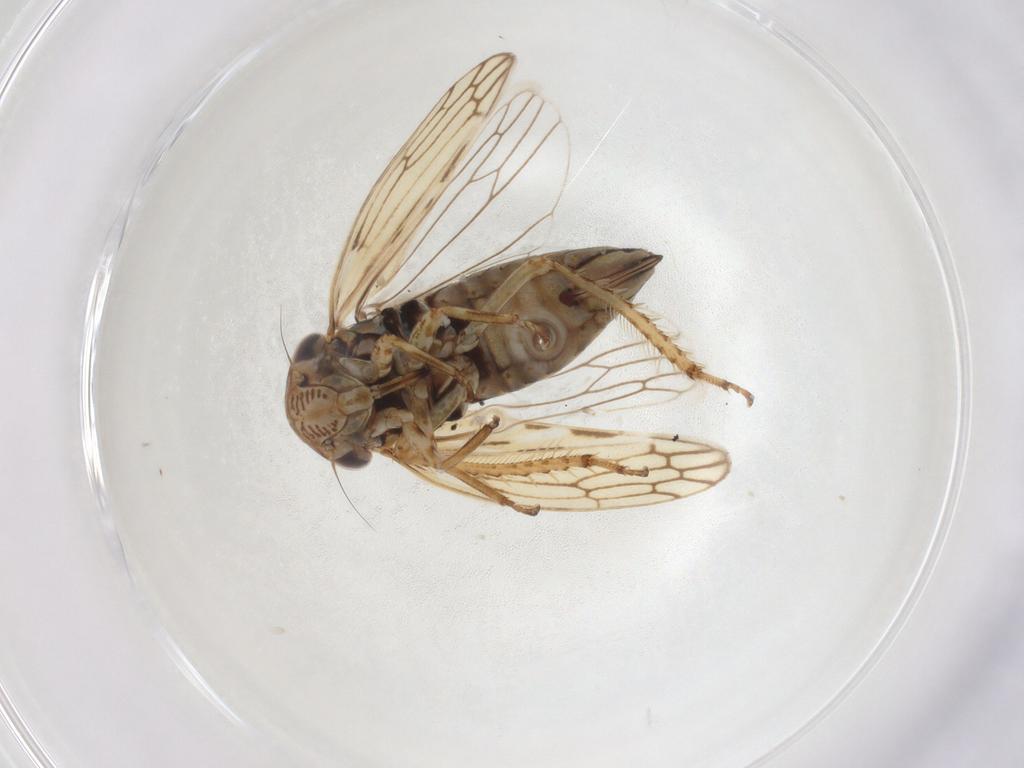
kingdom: Animalia
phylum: Arthropoda
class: Insecta
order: Hemiptera
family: Cicadellidae
